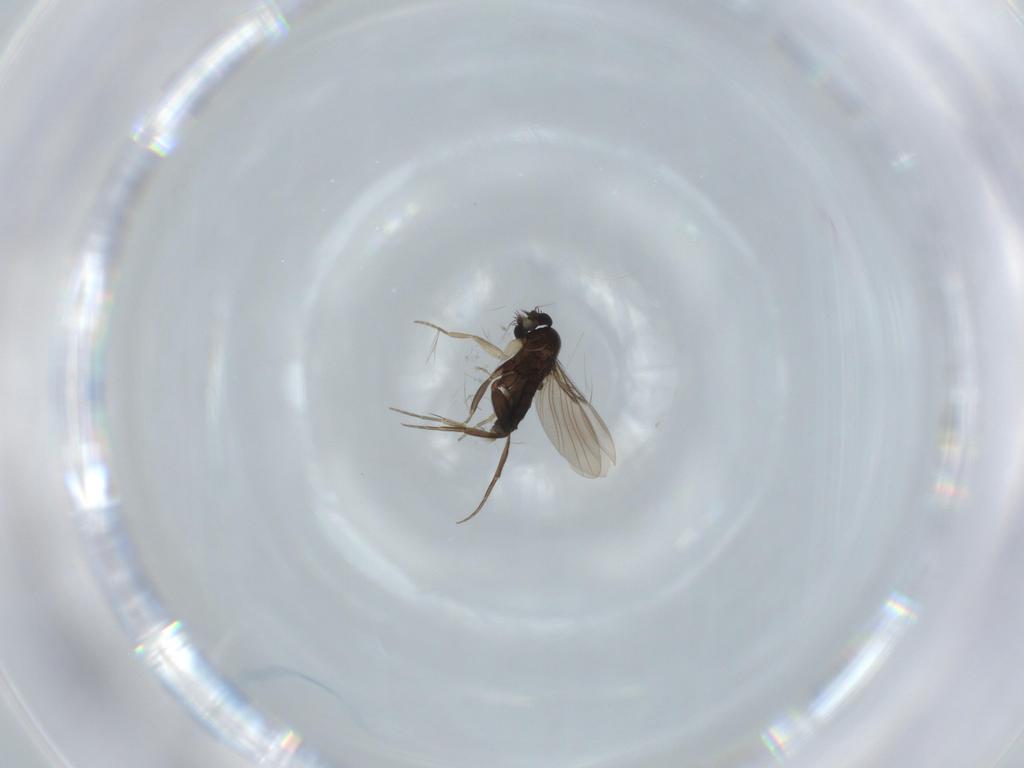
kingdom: Animalia
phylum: Arthropoda
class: Insecta
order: Diptera
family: Phoridae
